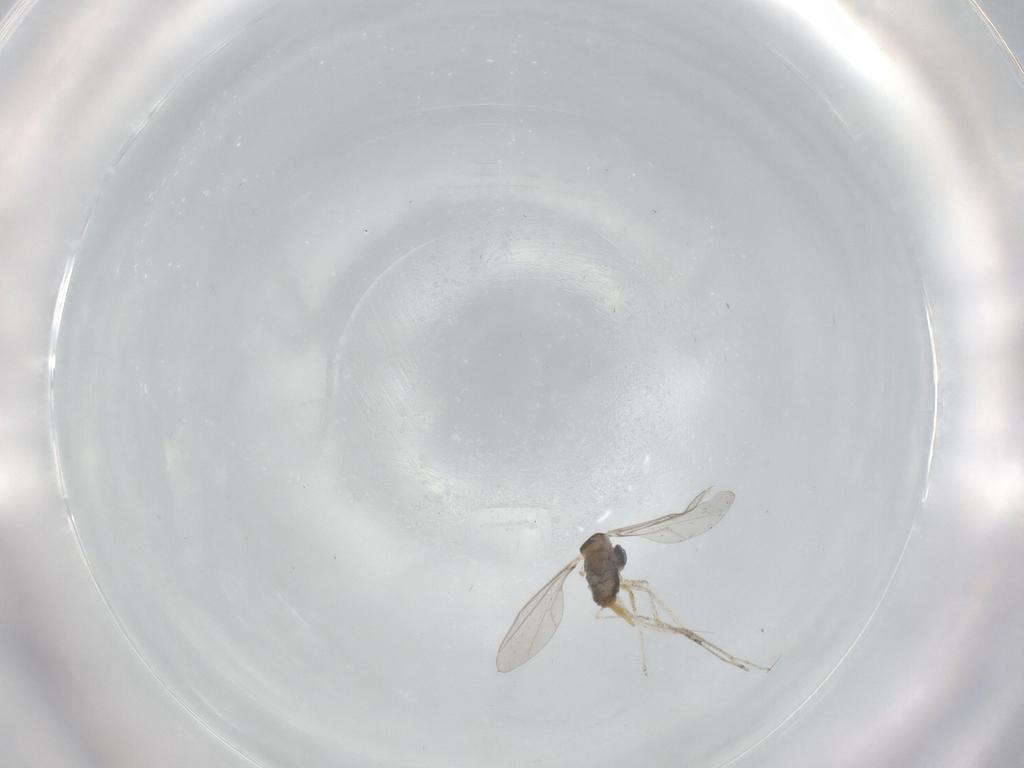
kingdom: Animalia
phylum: Arthropoda
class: Insecta
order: Diptera
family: Cecidomyiidae
